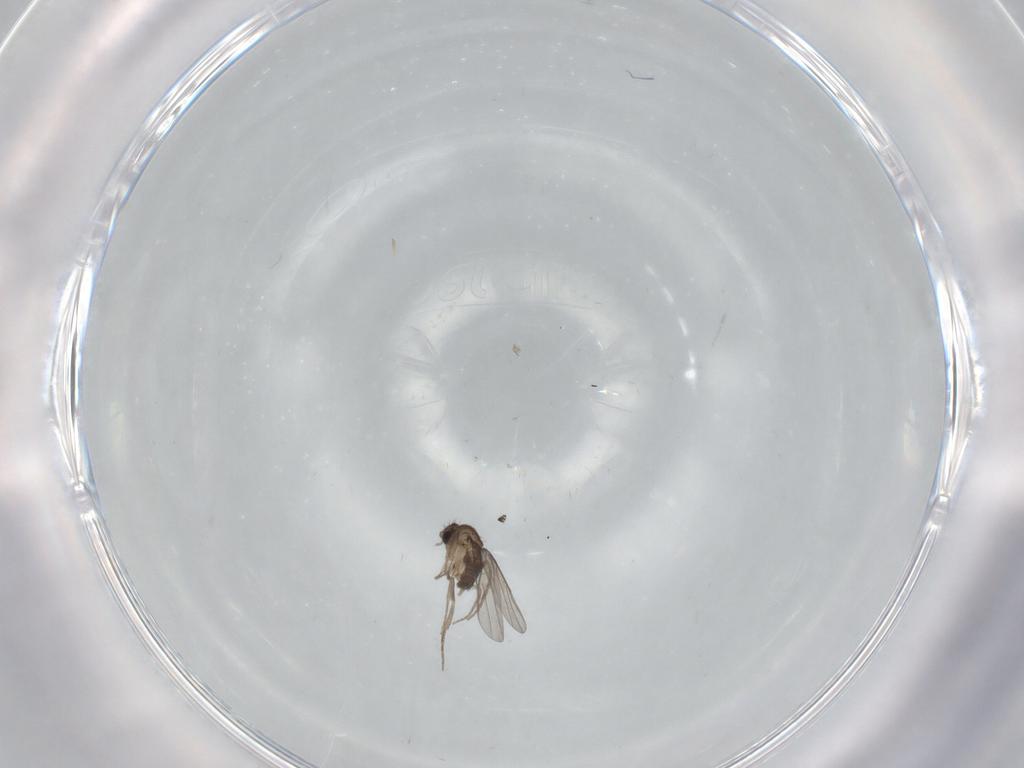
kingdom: Animalia
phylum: Arthropoda
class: Insecta
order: Diptera
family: Phoridae
